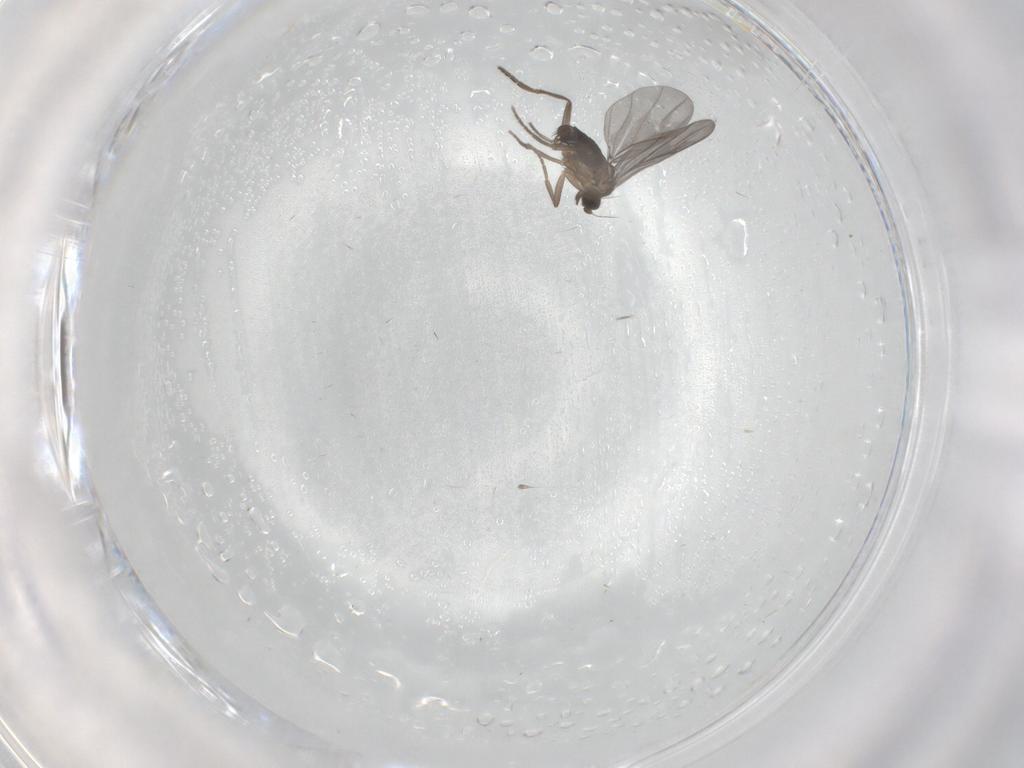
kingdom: Animalia
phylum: Arthropoda
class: Insecta
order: Diptera
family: Phoridae
